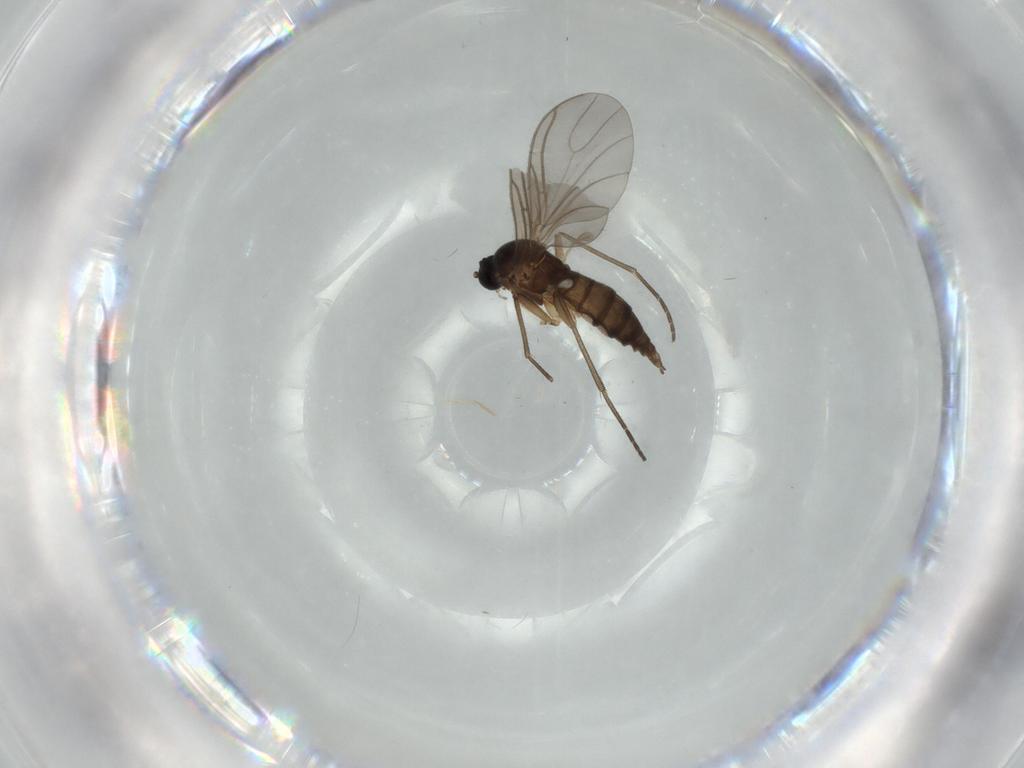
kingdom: Animalia
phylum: Arthropoda
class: Insecta
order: Diptera
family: Sciaridae
